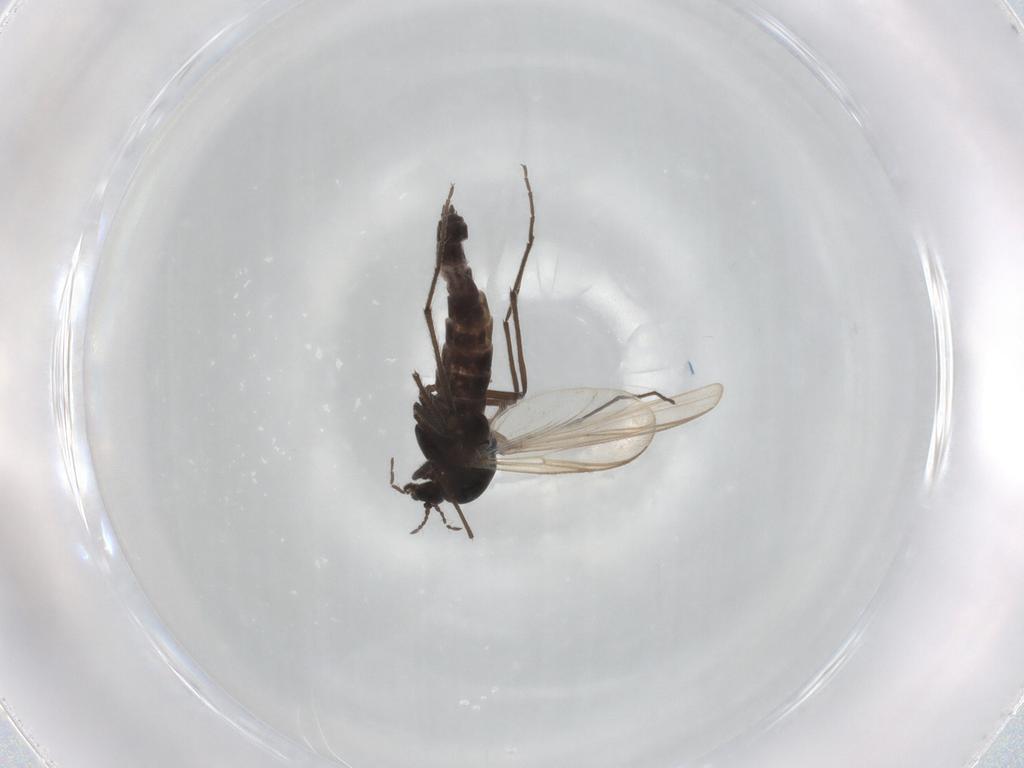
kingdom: Animalia
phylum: Arthropoda
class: Insecta
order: Diptera
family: Chironomidae
